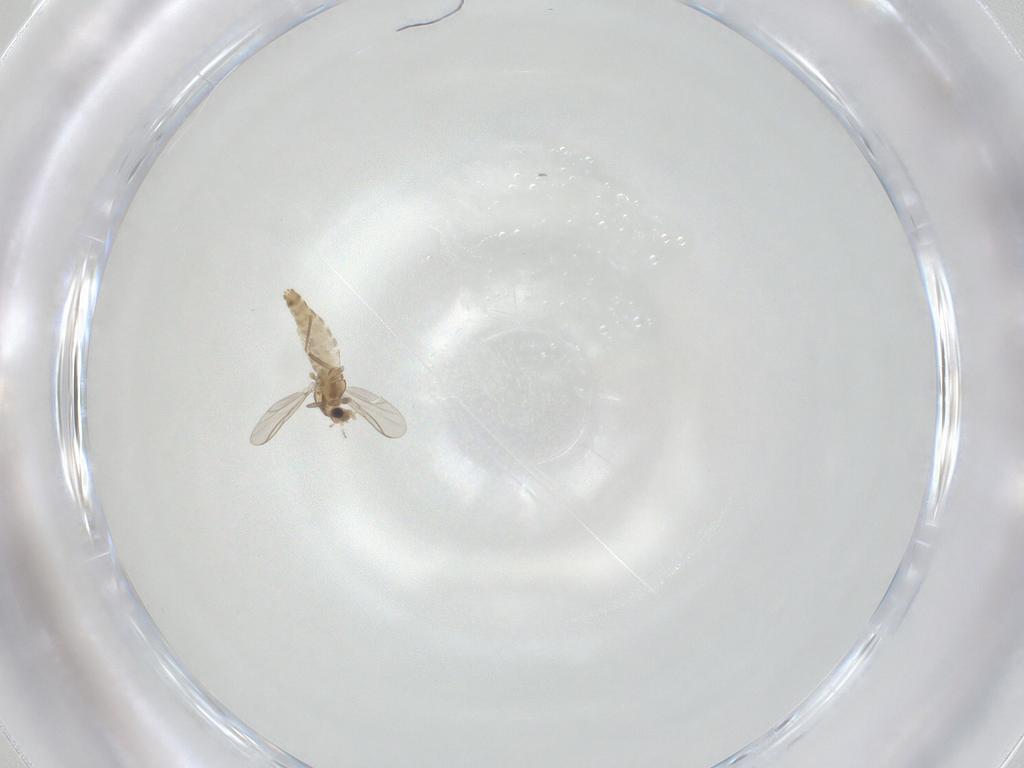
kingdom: Animalia
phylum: Arthropoda
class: Insecta
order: Diptera
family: Chironomidae
